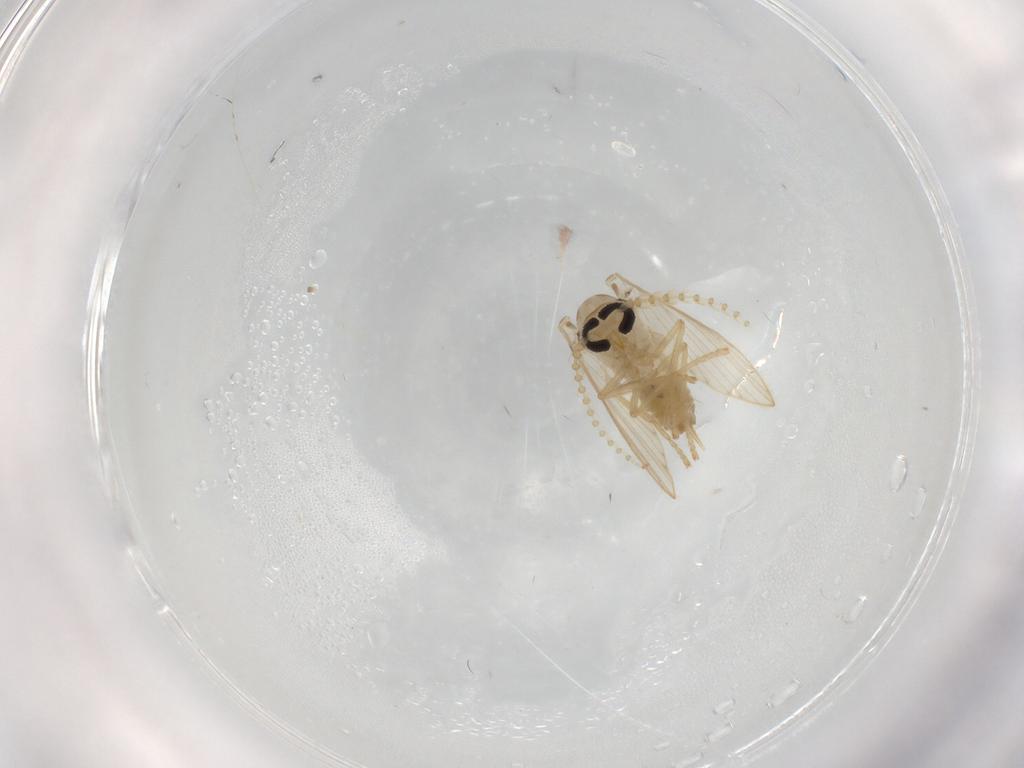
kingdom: Animalia
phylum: Arthropoda
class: Insecta
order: Diptera
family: Psychodidae
